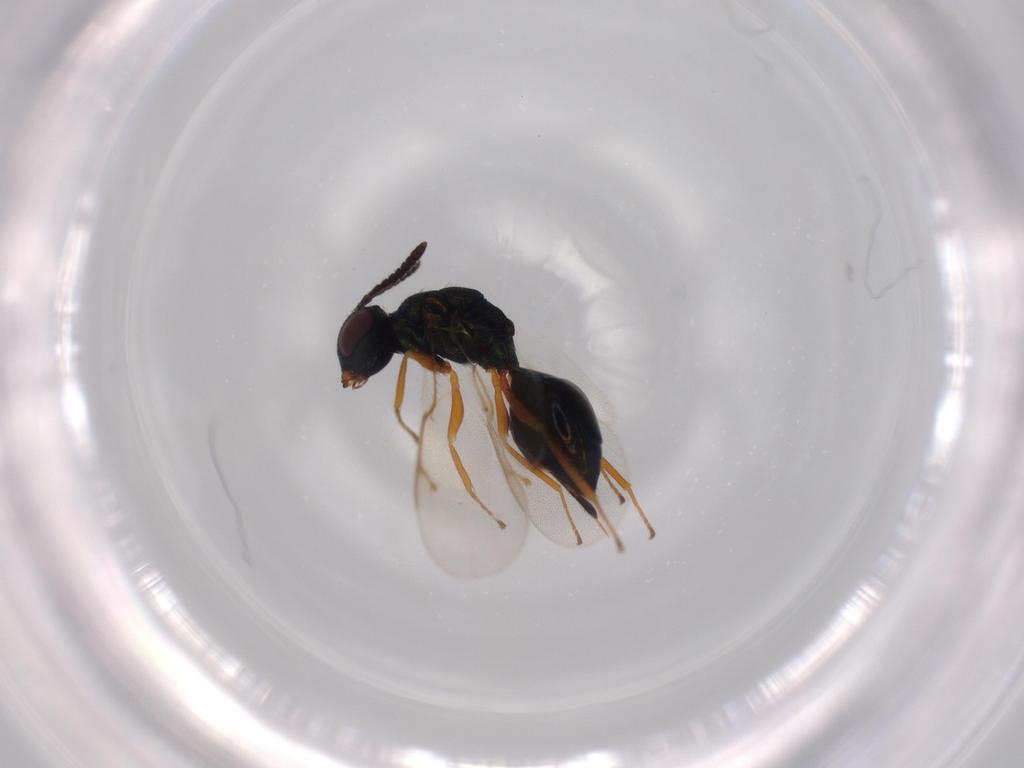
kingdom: Animalia
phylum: Arthropoda
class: Insecta
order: Hymenoptera
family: Pteromalidae
